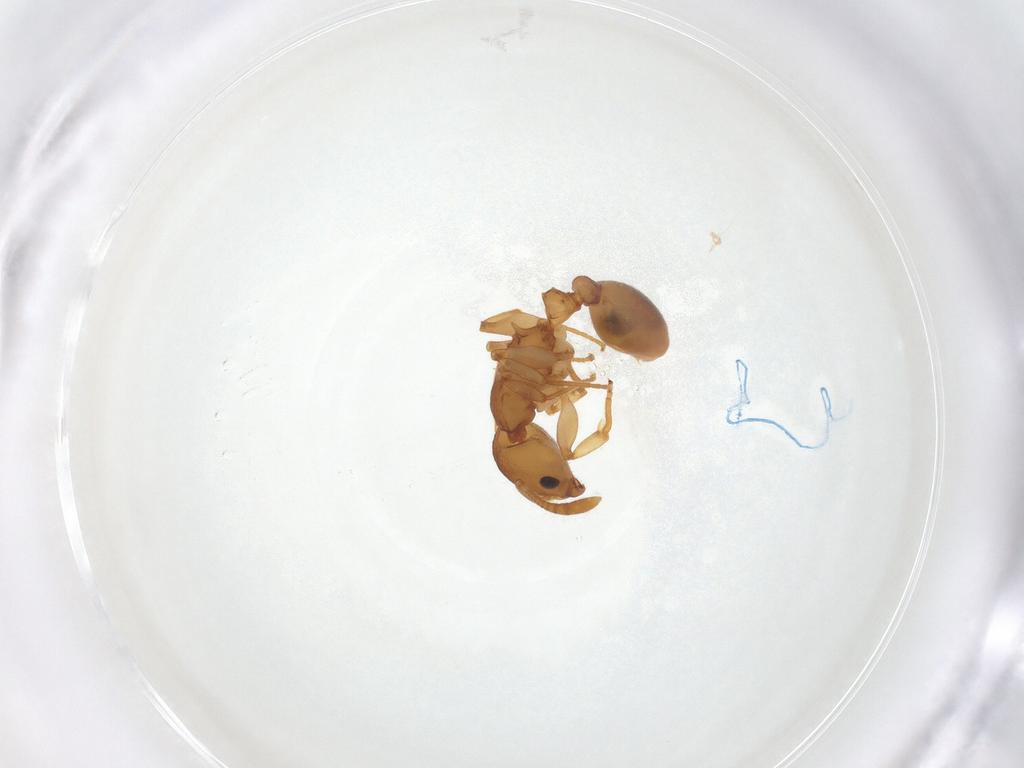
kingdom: Animalia
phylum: Arthropoda
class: Insecta
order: Hymenoptera
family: Formicidae
